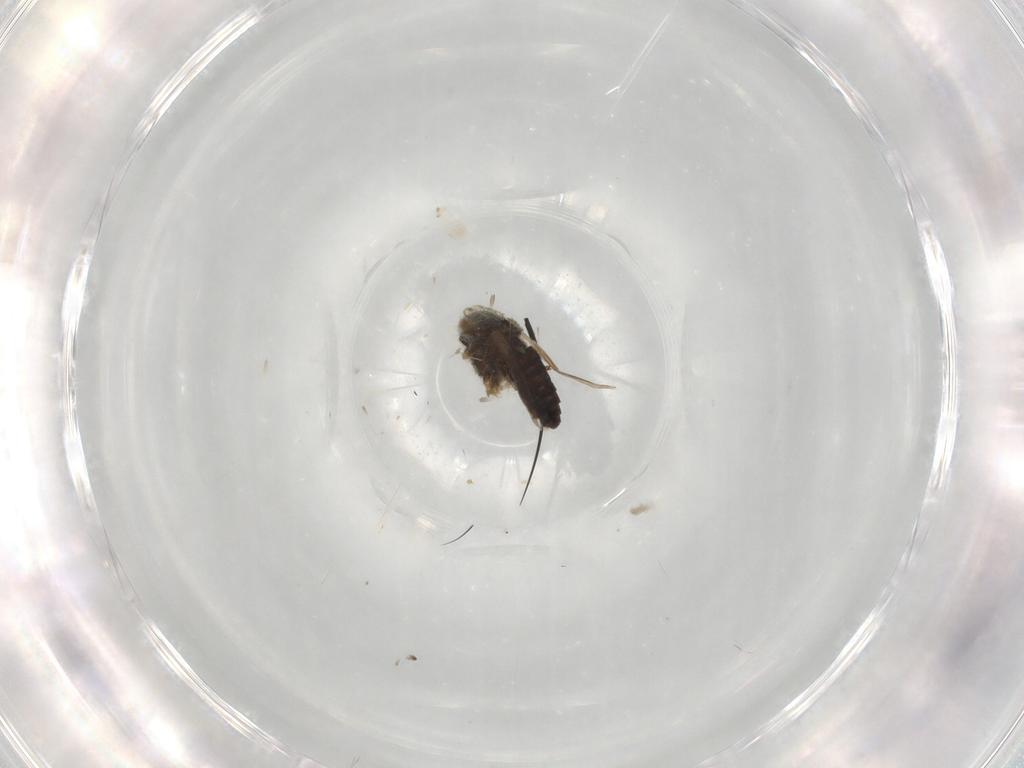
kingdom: Animalia
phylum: Arthropoda
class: Insecta
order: Diptera
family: Chironomidae
